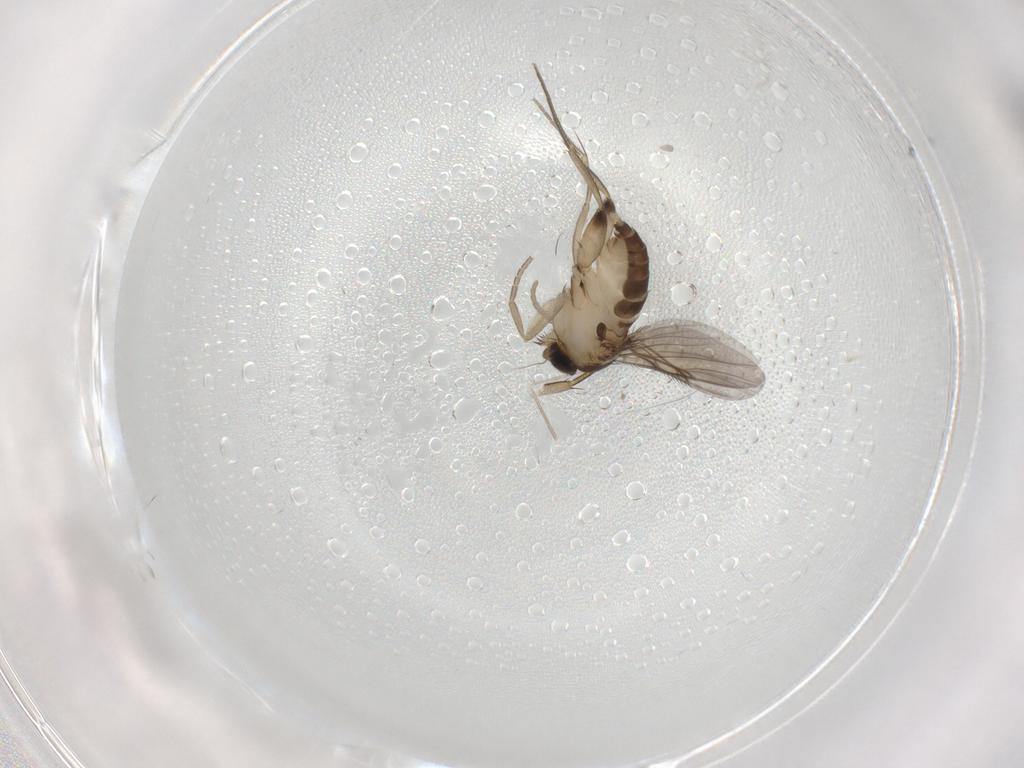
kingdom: Animalia
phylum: Arthropoda
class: Insecta
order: Diptera
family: Phoridae
